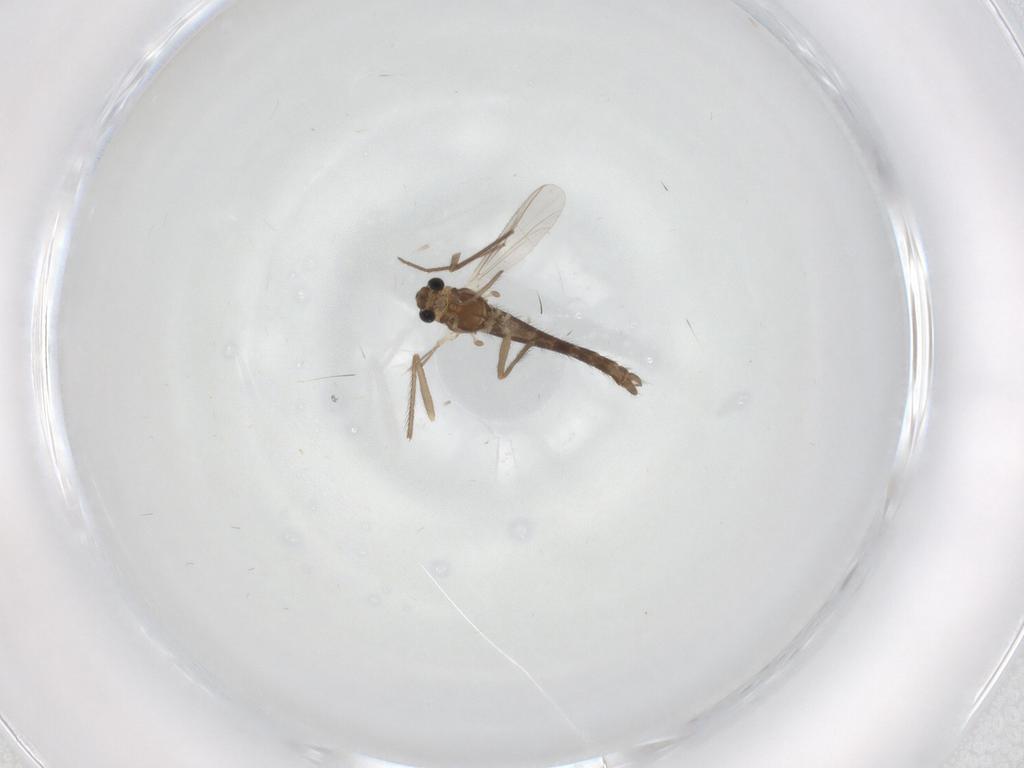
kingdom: Animalia
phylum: Arthropoda
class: Insecta
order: Diptera
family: Chironomidae
